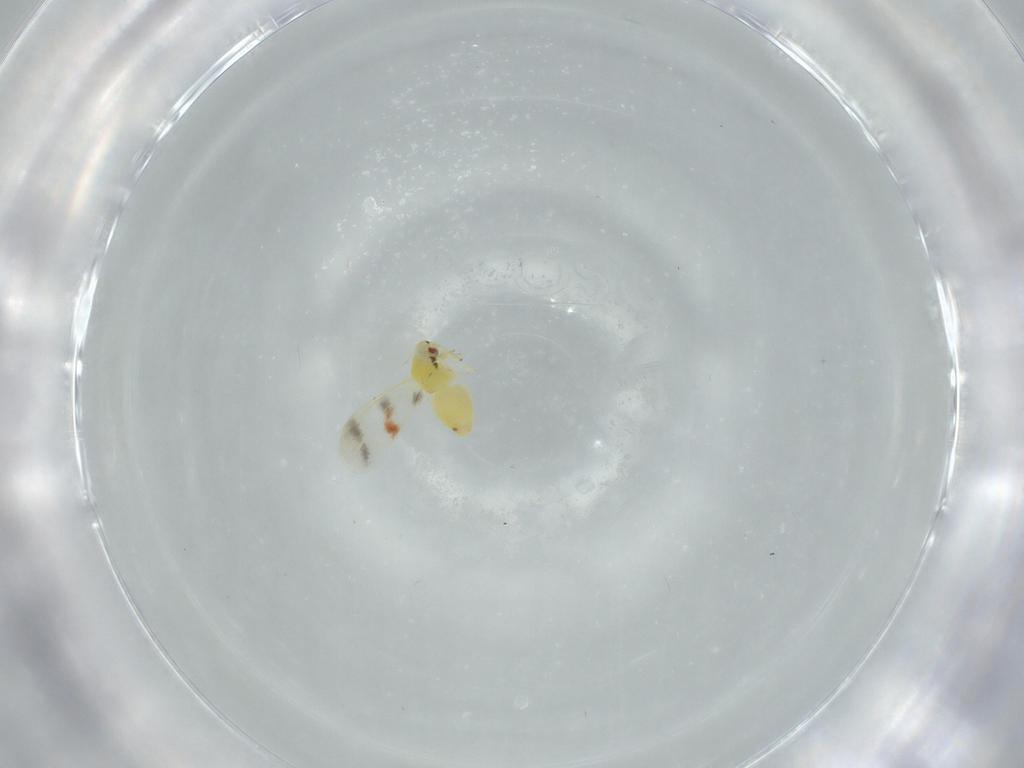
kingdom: Animalia
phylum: Arthropoda
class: Insecta
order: Hemiptera
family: Aleyrodidae
